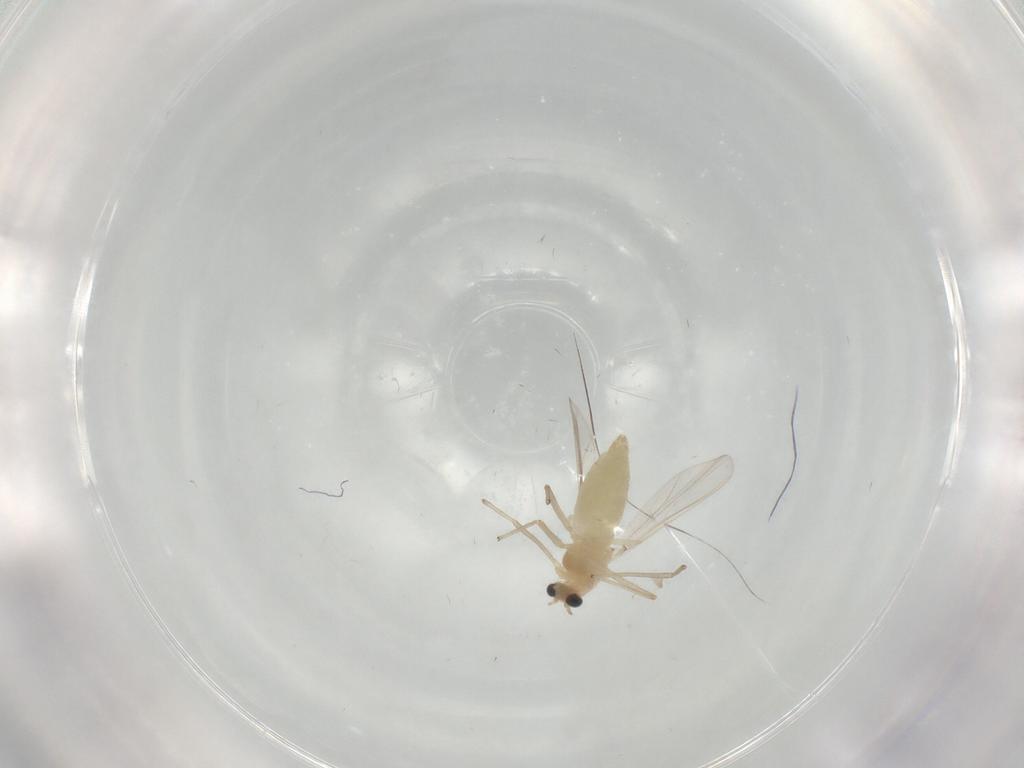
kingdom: Animalia
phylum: Arthropoda
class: Insecta
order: Diptera
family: Phoridae
